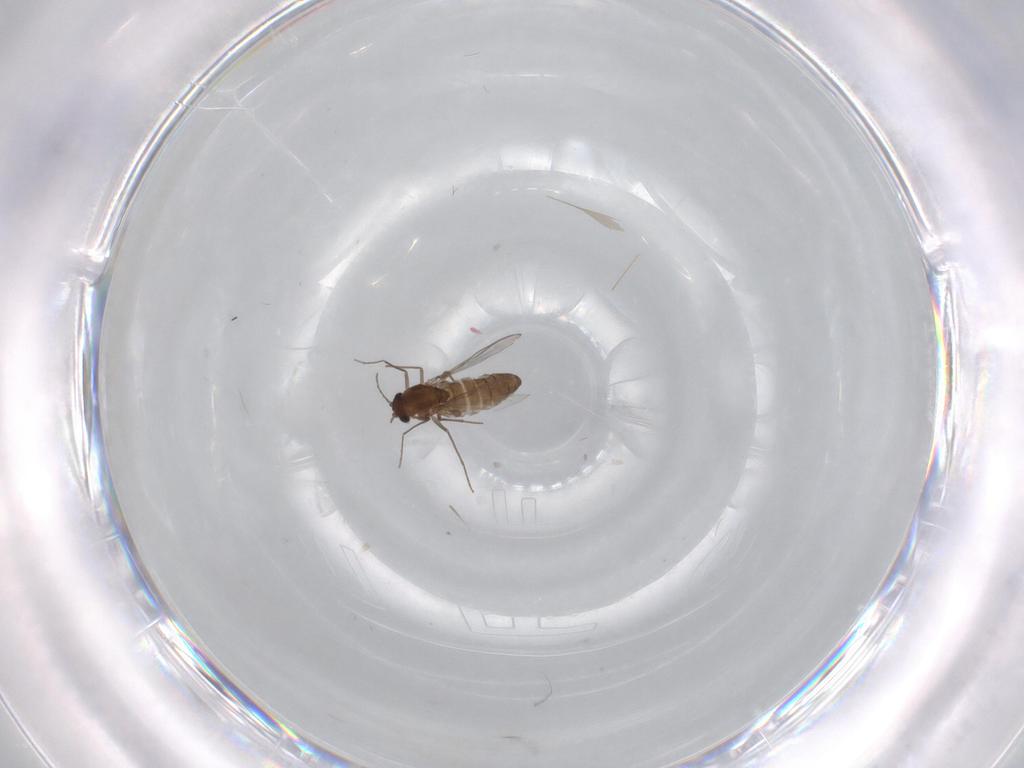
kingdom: Animalia
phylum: Arthropoda
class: Insecta
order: Diptera
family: Chironomidae
